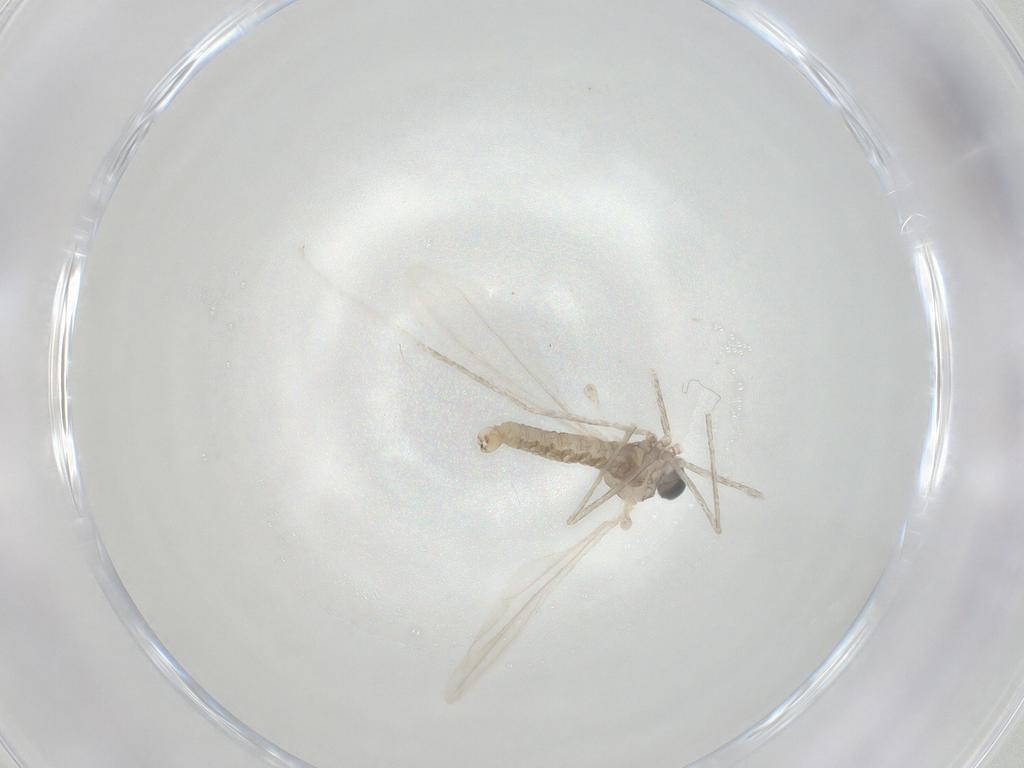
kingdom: Animalia
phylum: Arthropoda
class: Insecta
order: Diptera
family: Cecidomyiidae
